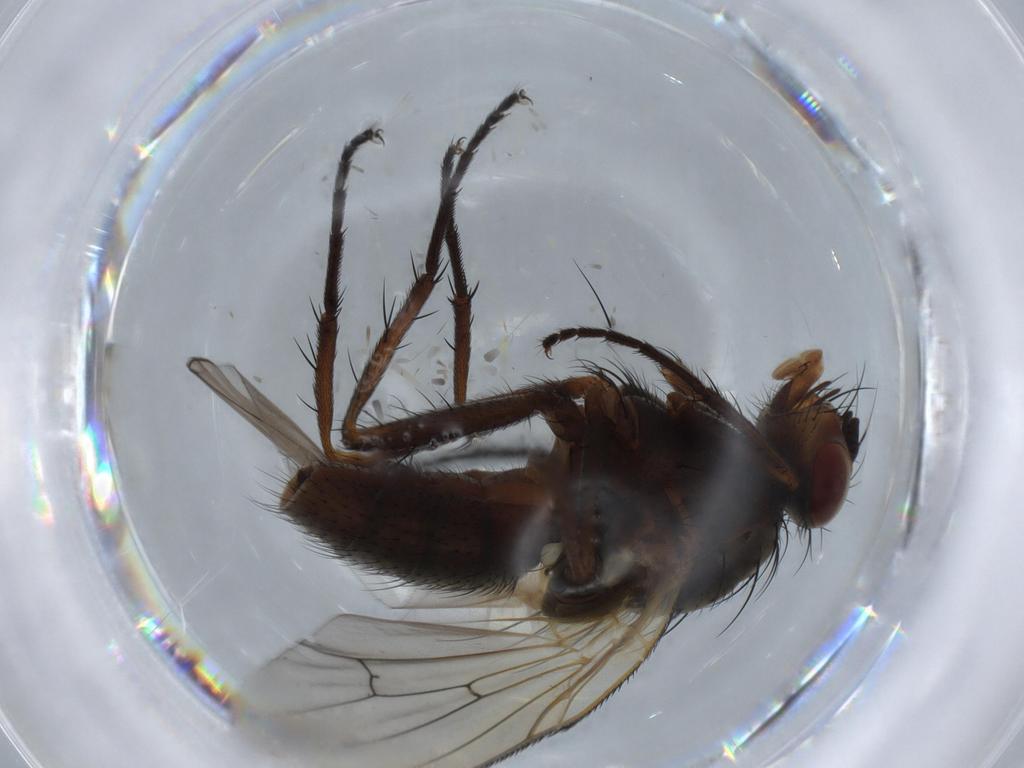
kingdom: Animalia
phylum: Arthropoda
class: Insecta
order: Diptera
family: Anthomyiidae
